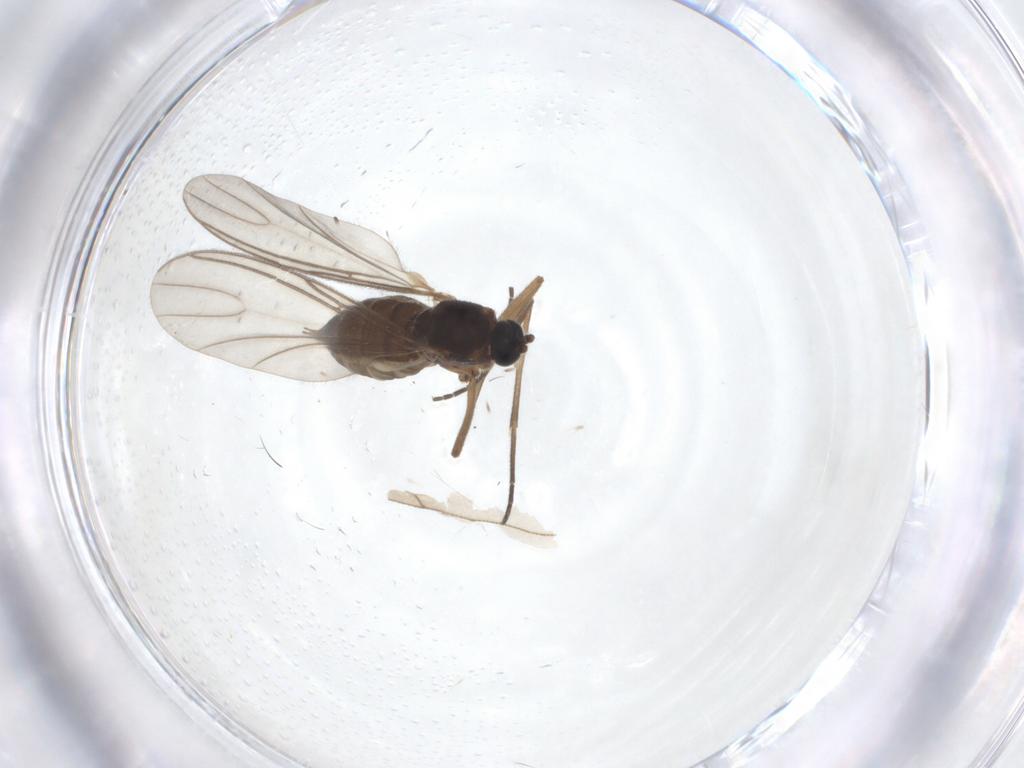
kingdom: Animalia
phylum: Arthropoda
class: Insecta
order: Diptera
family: Sciaridae
